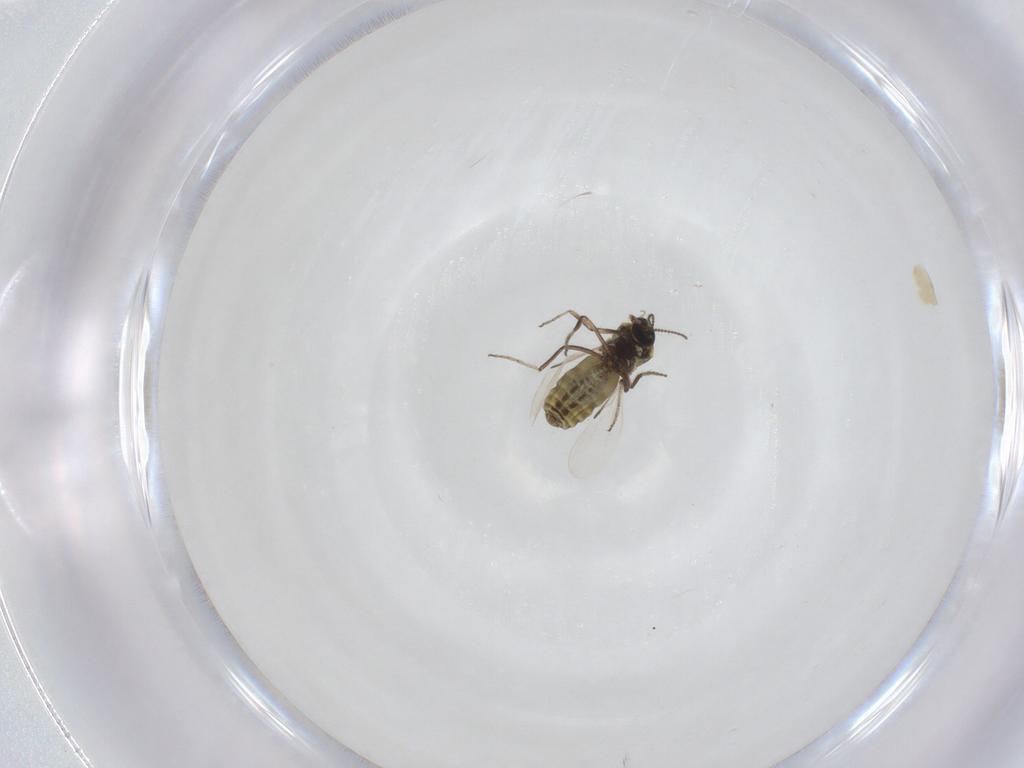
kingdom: Animalia
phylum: Arthropoda
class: Insecta
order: Diptera
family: Ceratopogonidae
